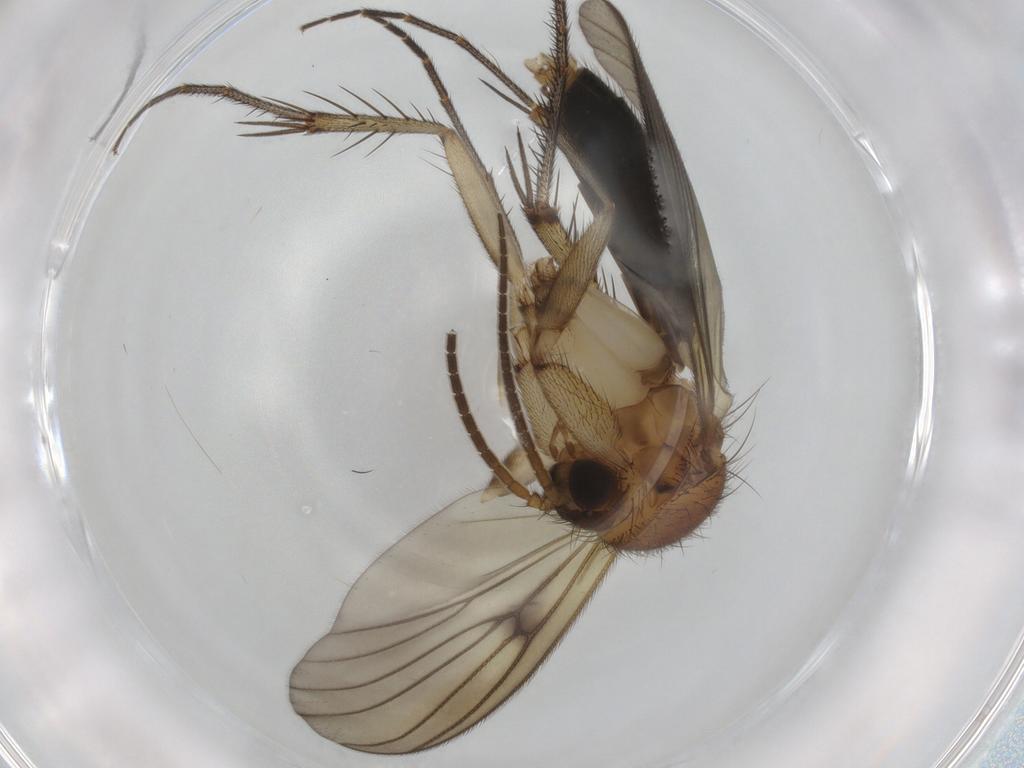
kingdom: Animalia
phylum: Arthropoda
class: Insecta
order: Diptera
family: Mycetophilidae
